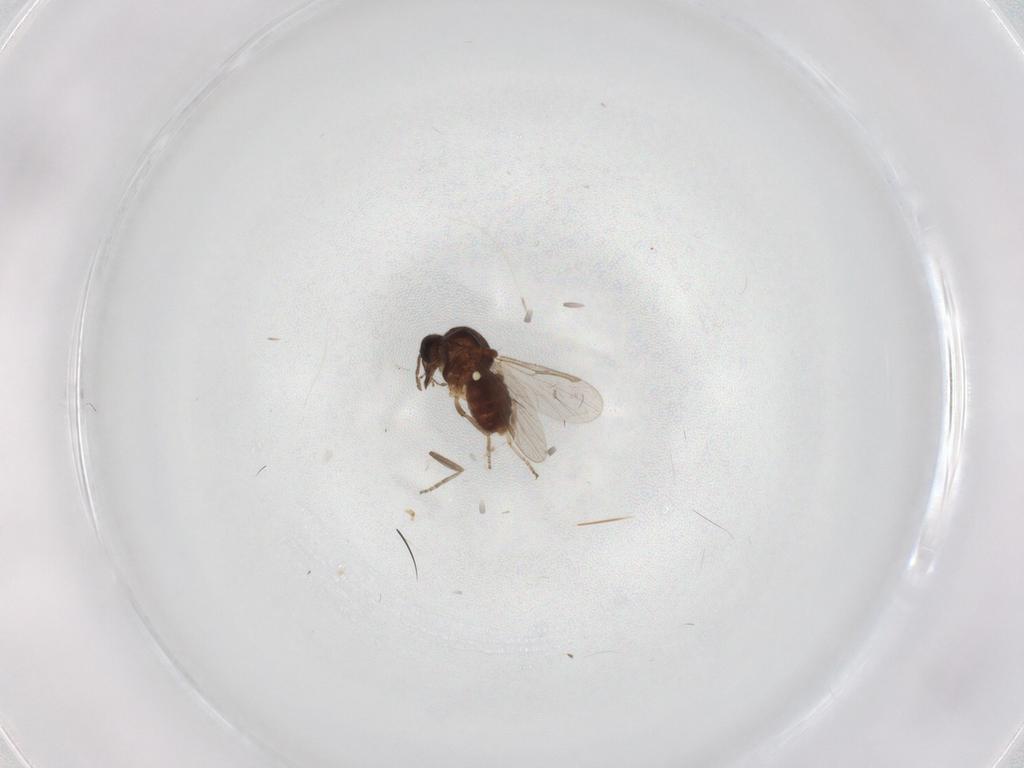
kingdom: Animalia
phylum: Arthropoda
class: Insecta
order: Diptera
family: Ceratopogonidae
